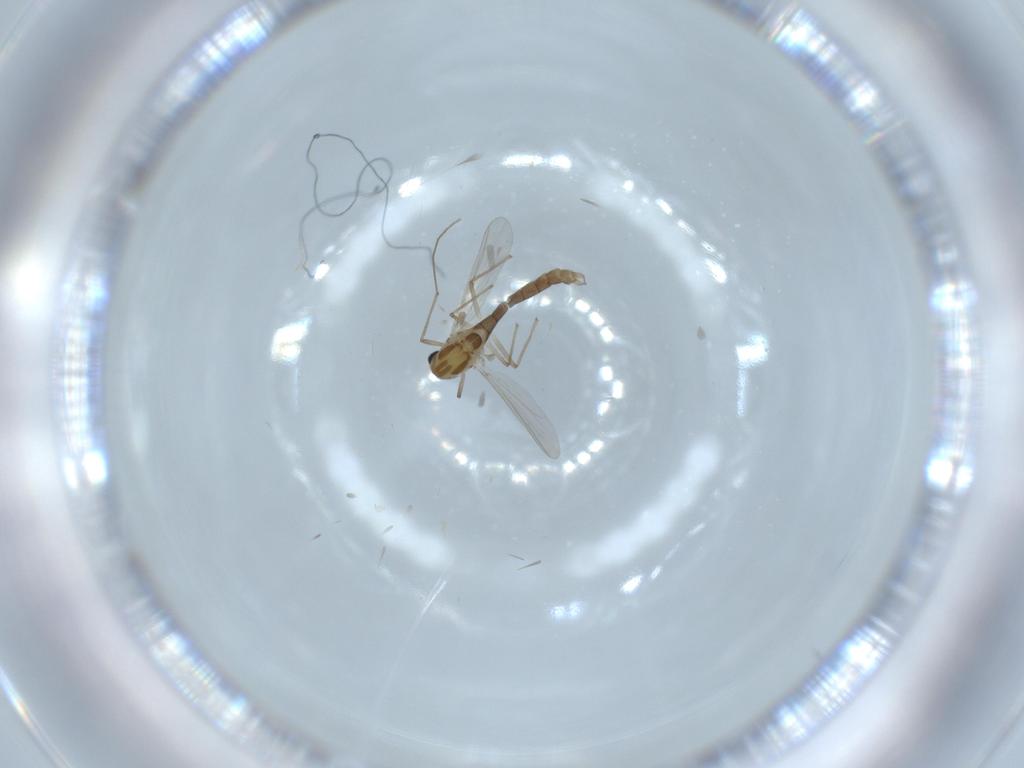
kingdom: Animalia
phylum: Arthropoda
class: Insecta
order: Diptera
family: Chironomidae
